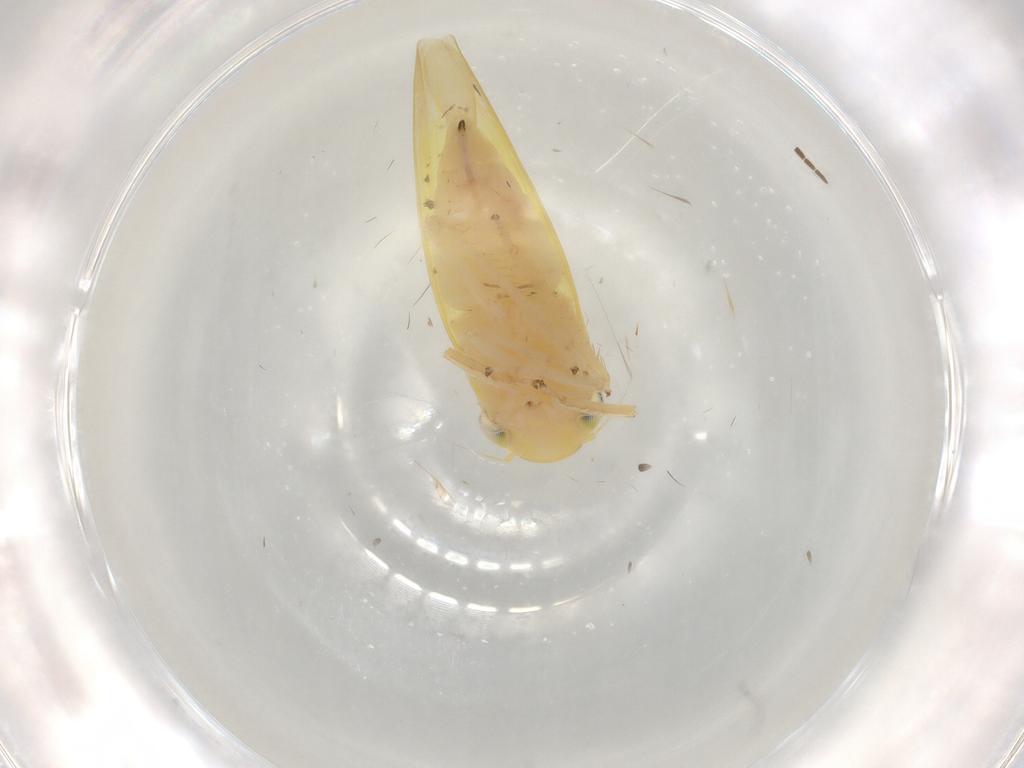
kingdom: Animalia
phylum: Arthropoda
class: Insecta
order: Hemiptera
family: Cicadellidae
